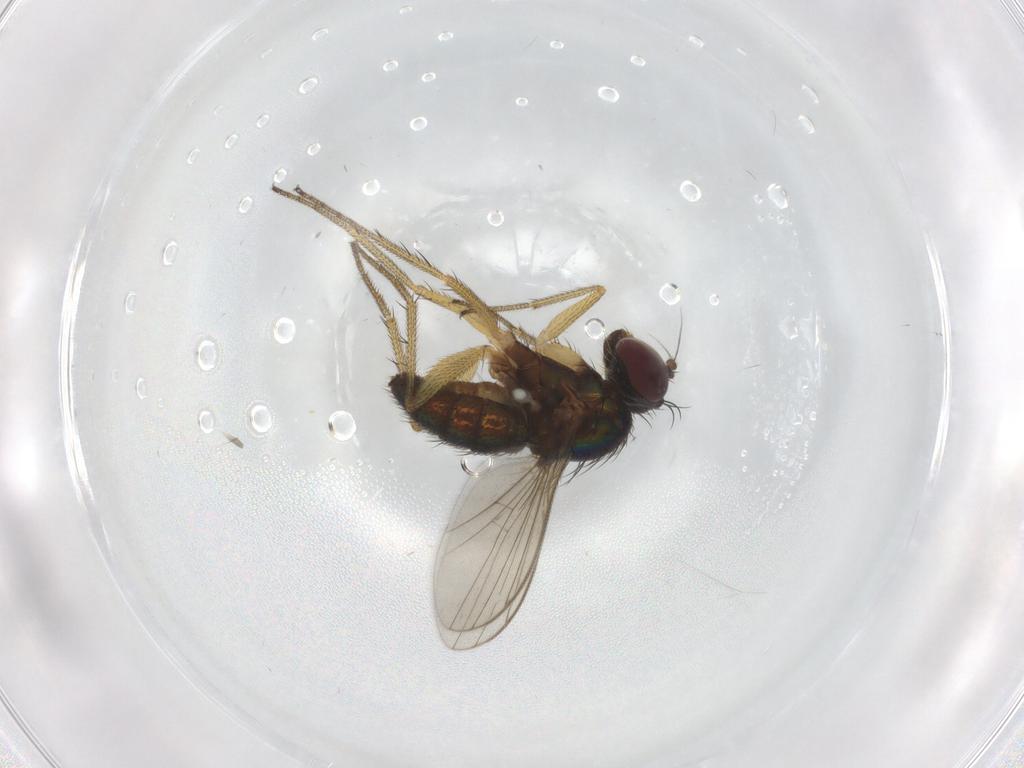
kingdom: Animalia
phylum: Arthropoda
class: Insecta
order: Diptera
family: Dolichopodidae
